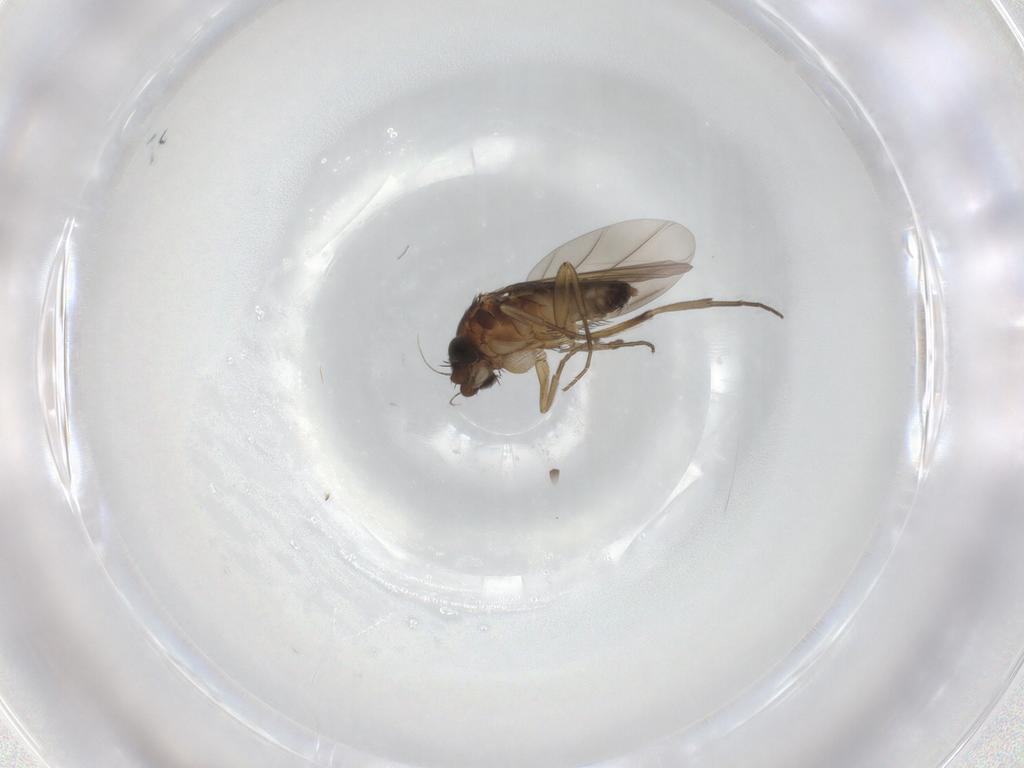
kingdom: Animalia
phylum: Arthropoda
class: Insecta
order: Diptera
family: Phoridae
